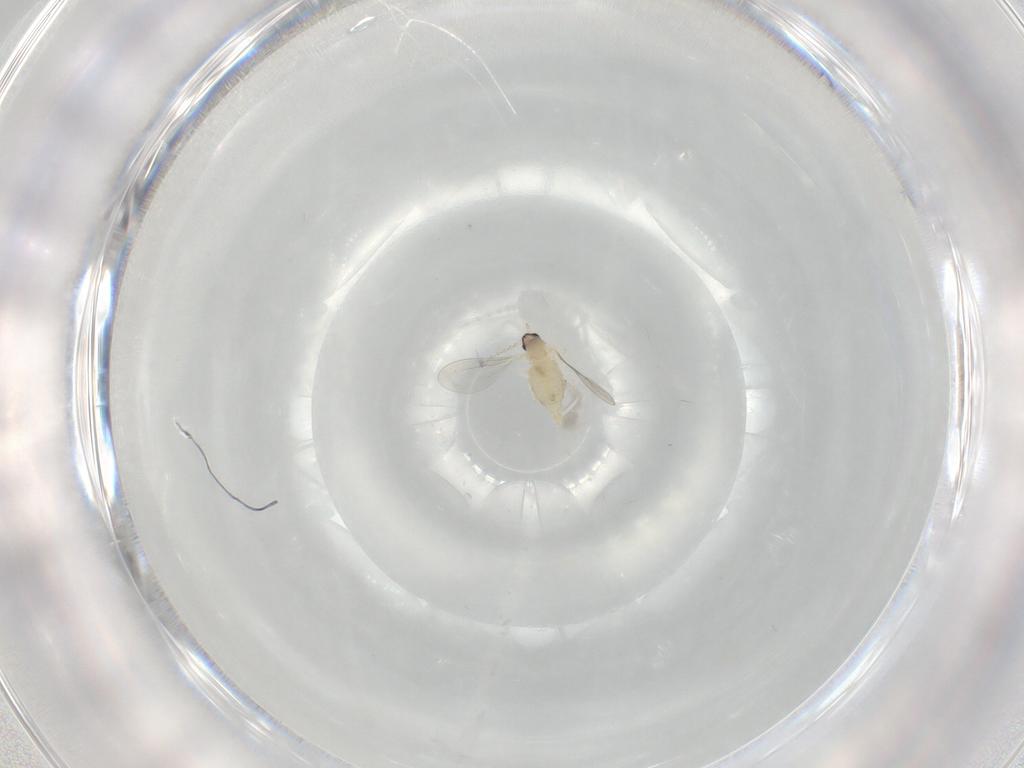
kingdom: Animalia
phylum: Arthropoda
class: Insecta
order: Diptera
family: Cecidomyiidae
